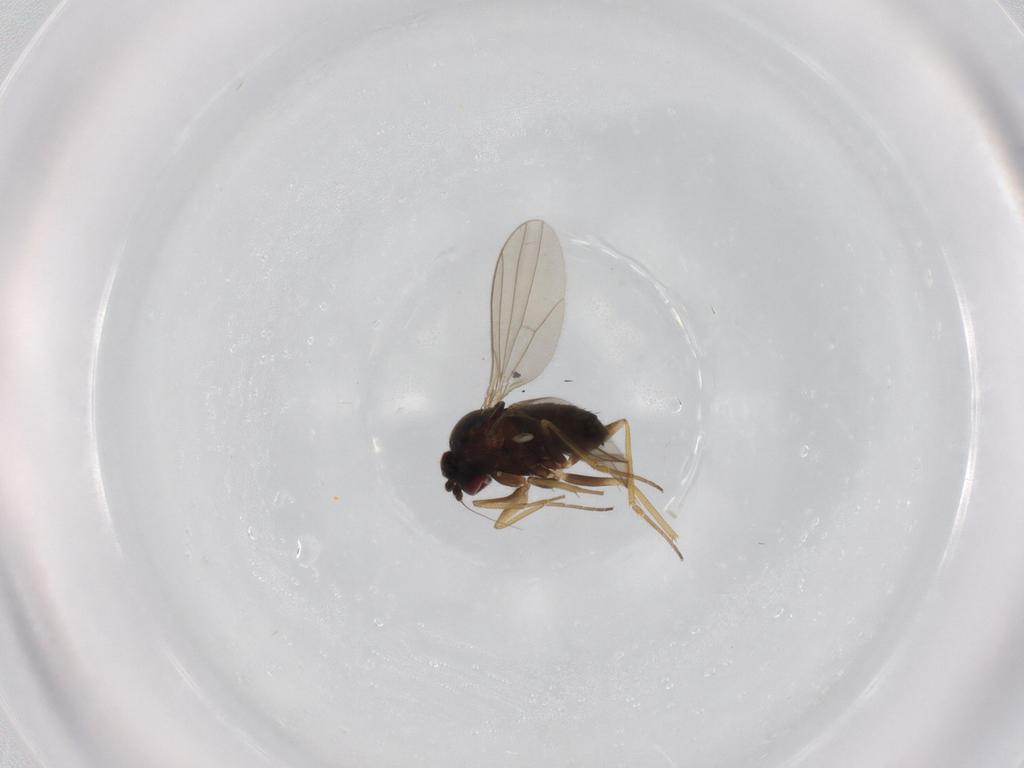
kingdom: Animalia
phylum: Arthropoda
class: Insecta
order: Diptera
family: Dolichopodidae
